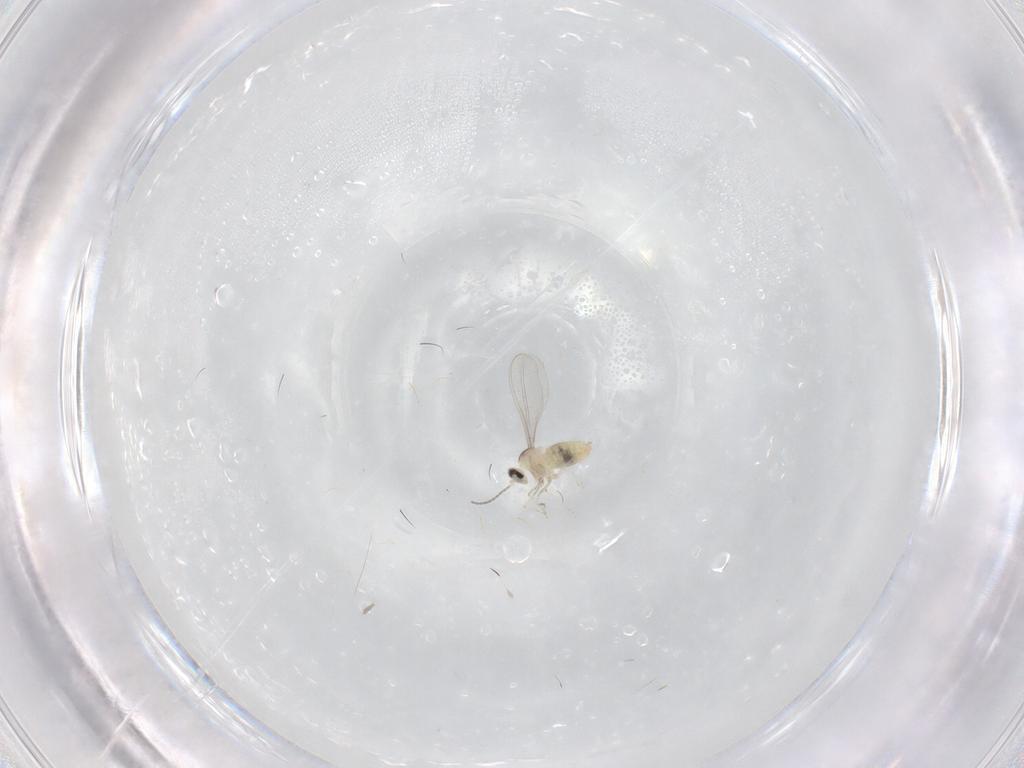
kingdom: Animalia
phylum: Arthropoda
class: Insecta
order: Diptera
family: Cecidomyiidae
